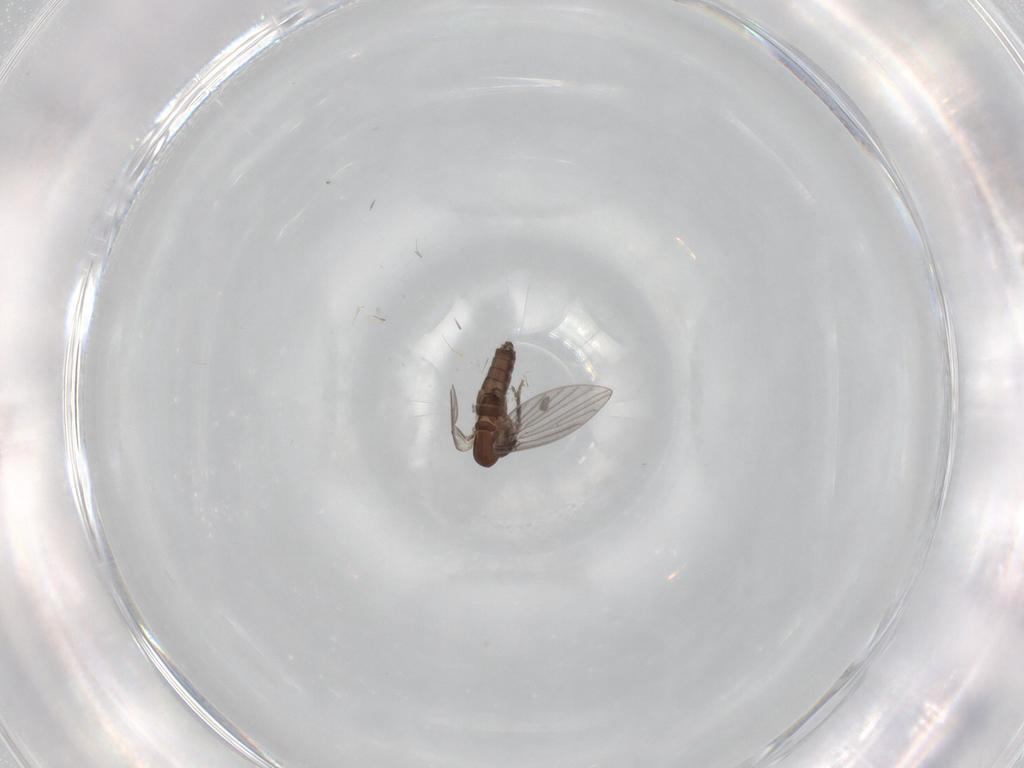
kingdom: Animalia
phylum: Arthropoda
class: Insecta
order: Diptera
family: Psychodidae
